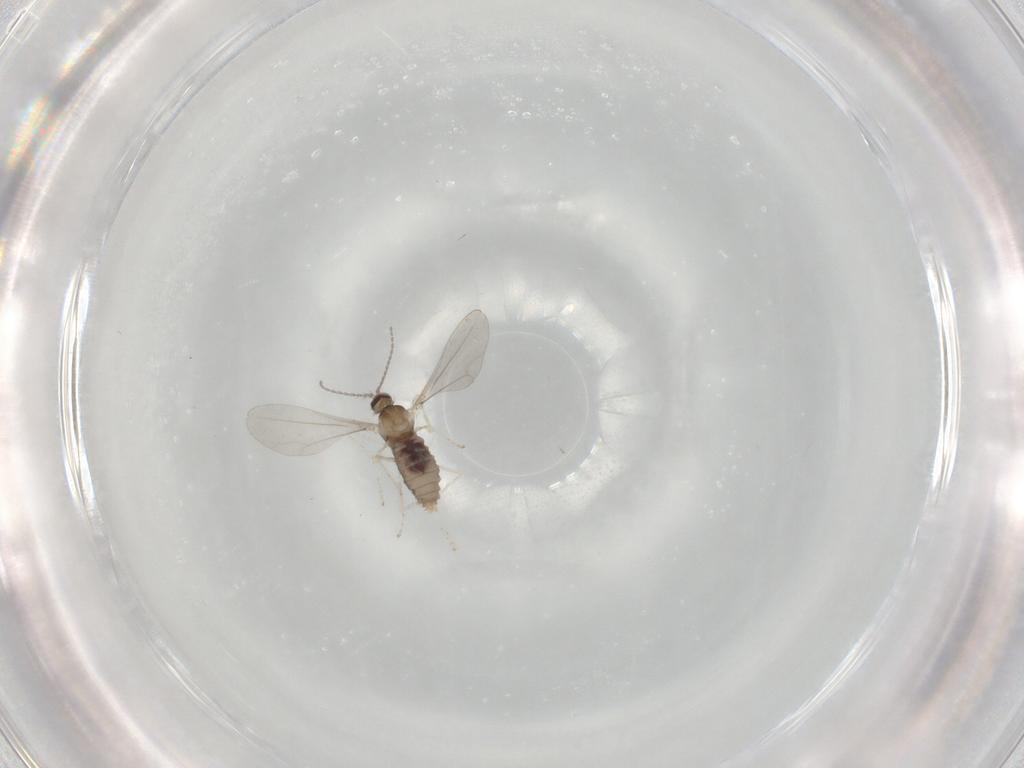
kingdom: Animalia
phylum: Arthropoda
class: Insecta
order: Diptera
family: Cecidomyiidae
